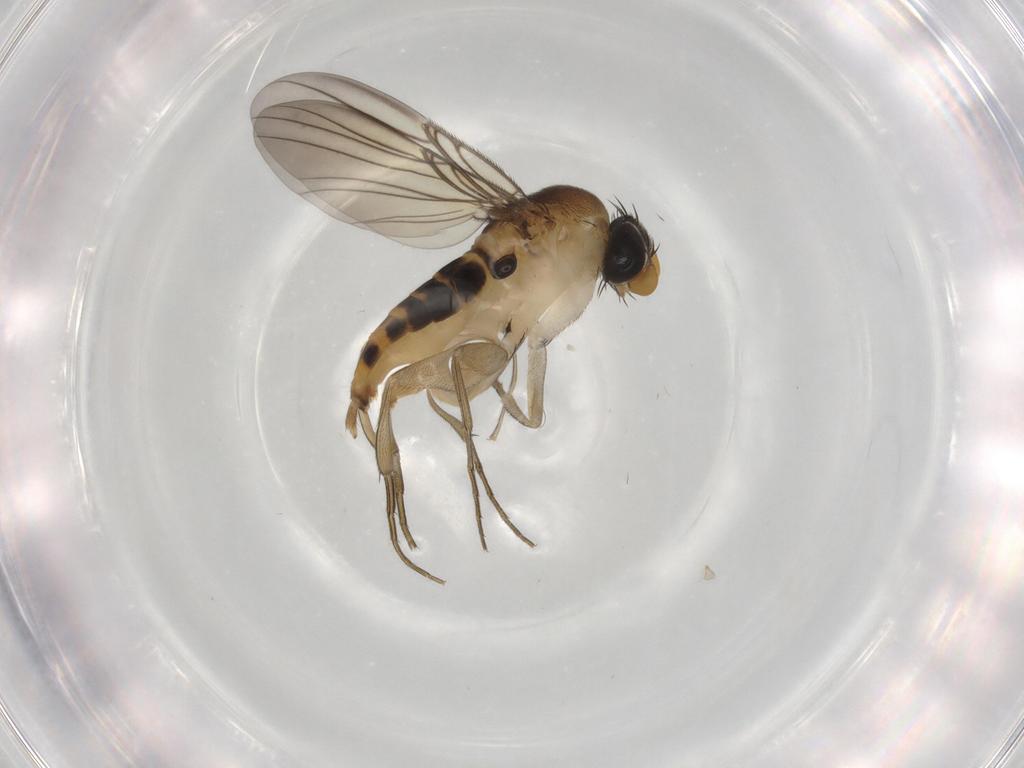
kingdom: Animalia
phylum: Arthropoda
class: Insecta
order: Diptera
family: Phoridae
